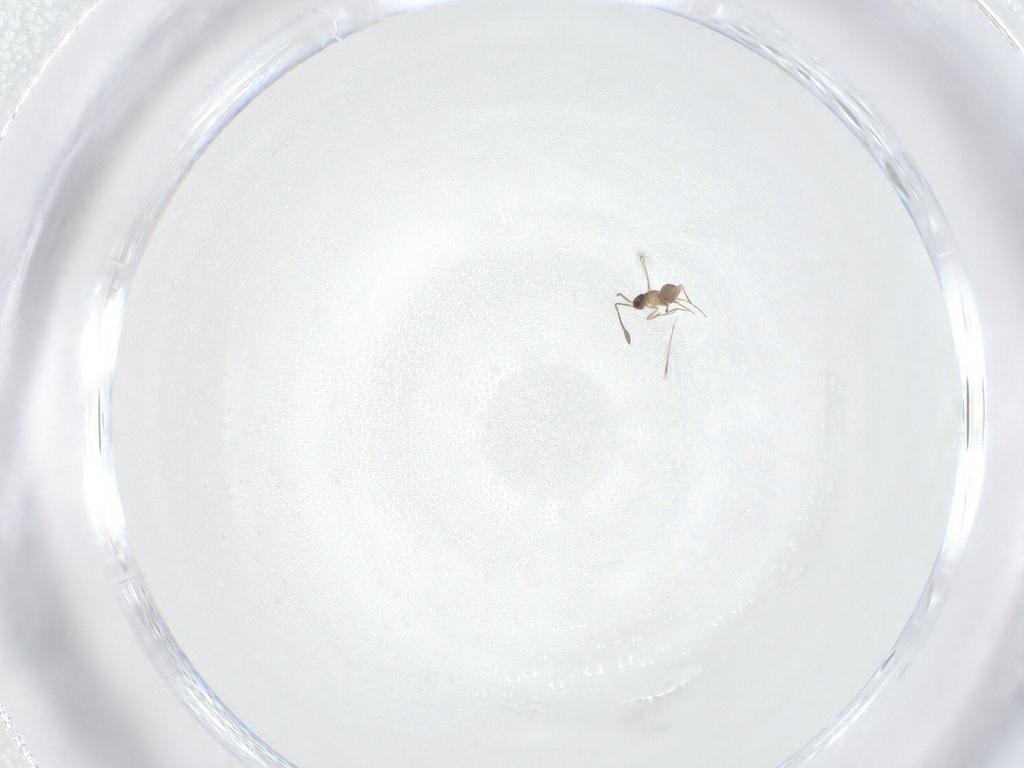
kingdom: Animalia
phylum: Arthropoda
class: Insecta
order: Hymenoptera
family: Mymaridae
